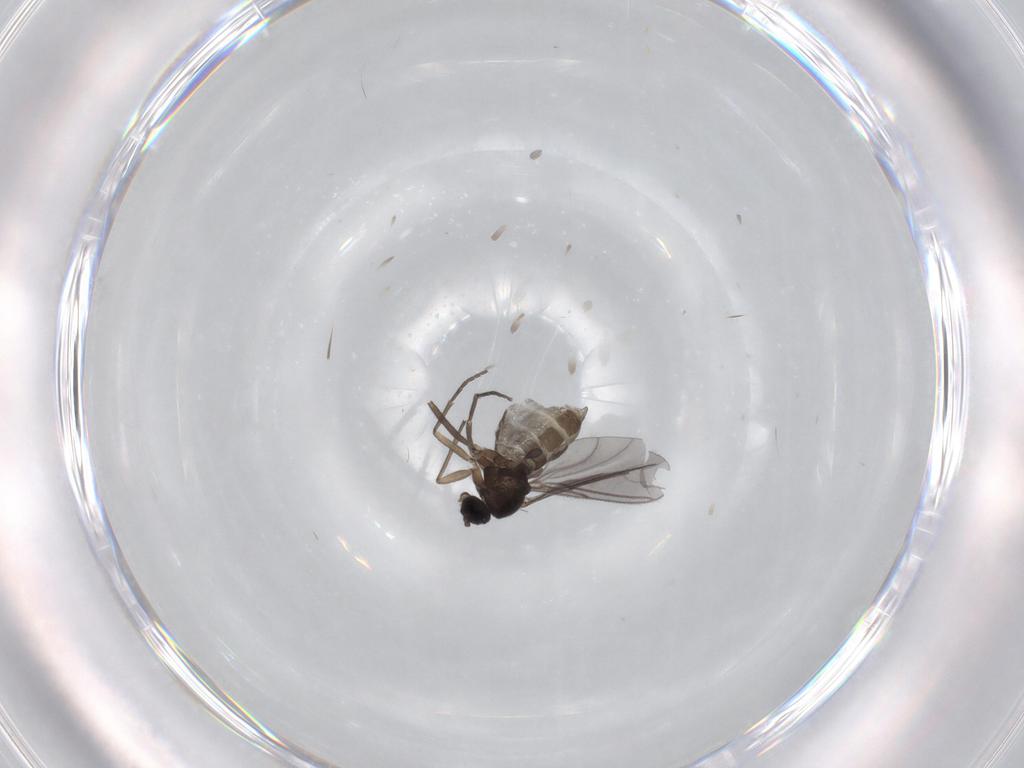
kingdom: Animalia
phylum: Arthropoda
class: Insecta
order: Diptera
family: Sciaridae
